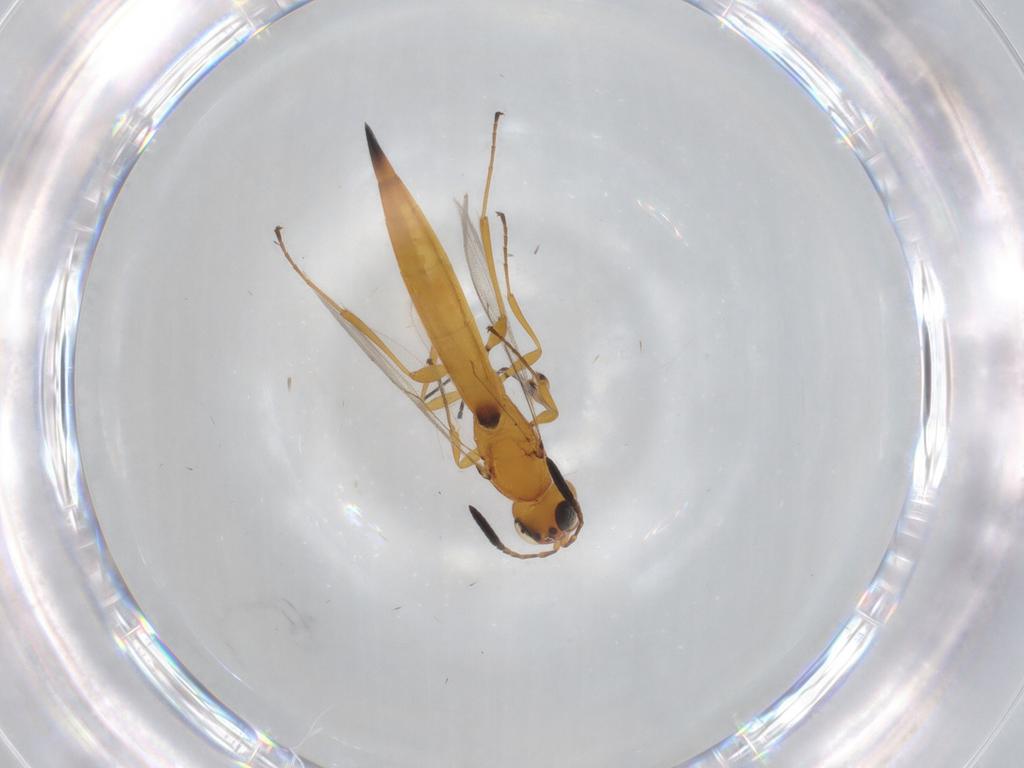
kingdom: Animalia
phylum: Arthropoda
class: Insecta
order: Hymenoptera
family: Scelionidae
